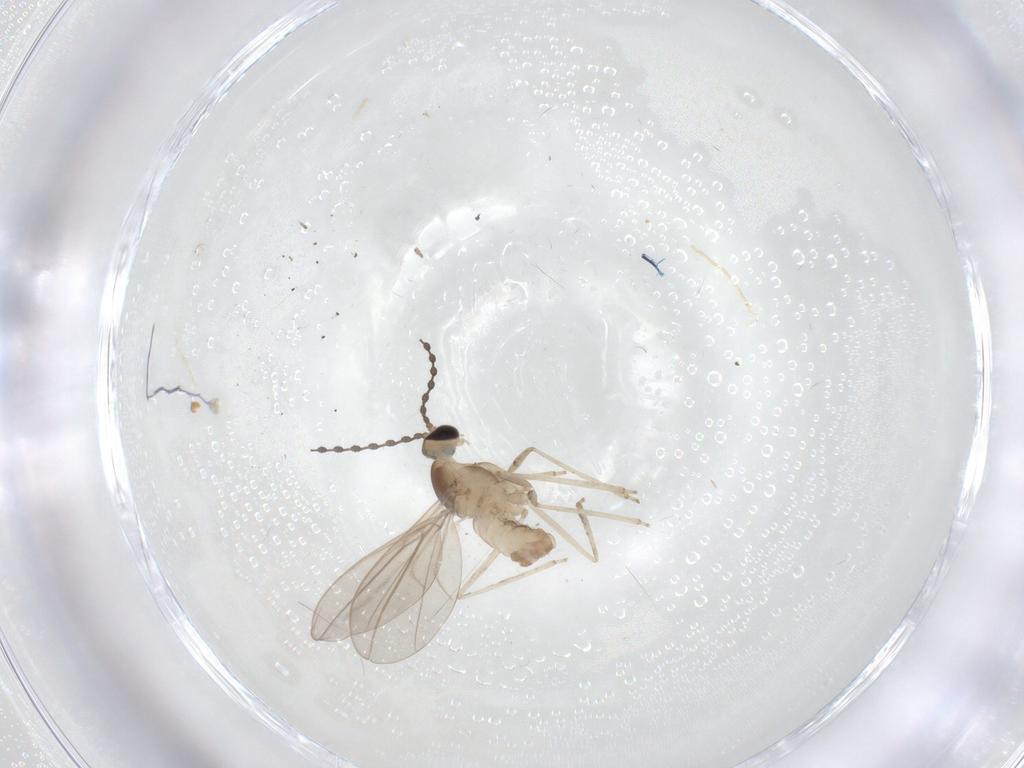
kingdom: Animalia
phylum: Arthropoda
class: Insecta
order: Diptera
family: Cecidomyiidae
